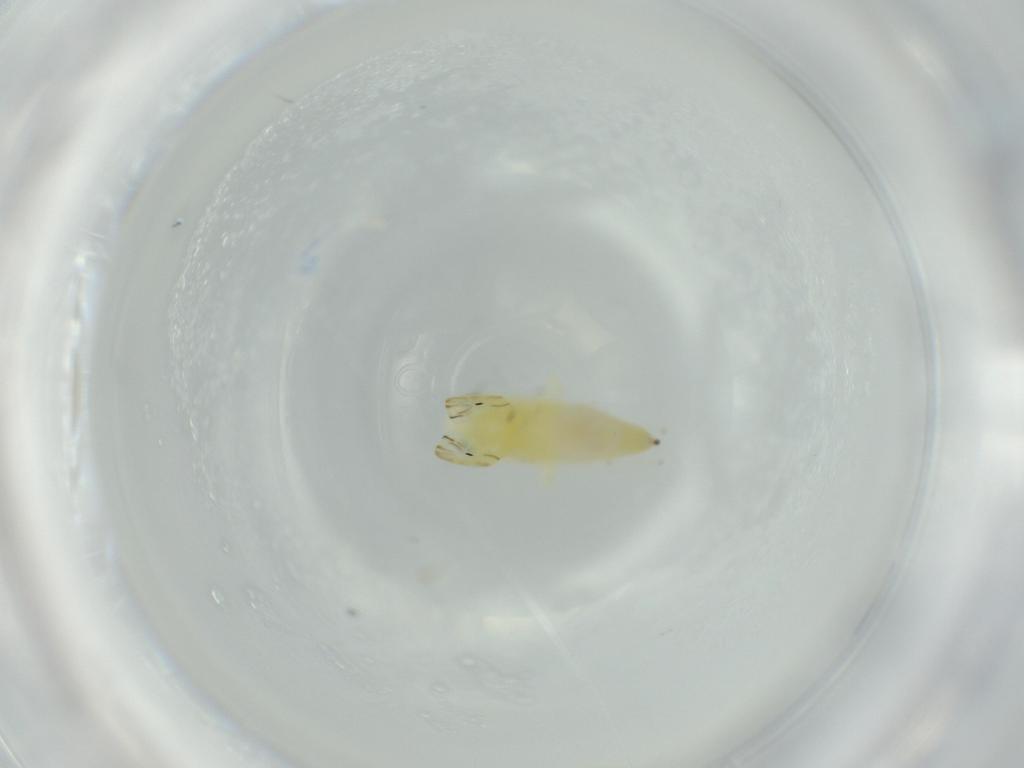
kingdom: Animalia
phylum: Arthropoda
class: Insecta
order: Hemiptera
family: Cicadellidae
